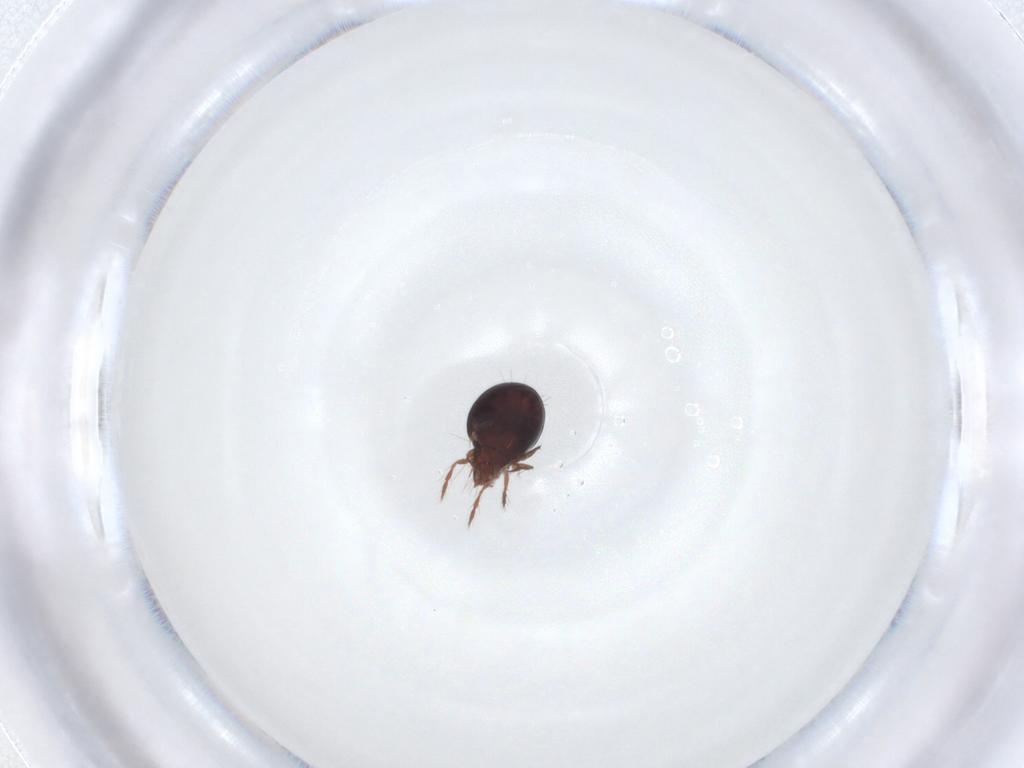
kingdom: Animalia
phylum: Arthropoda
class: Arachnida
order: Sarcoptiformes
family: Ceratoppiidae
